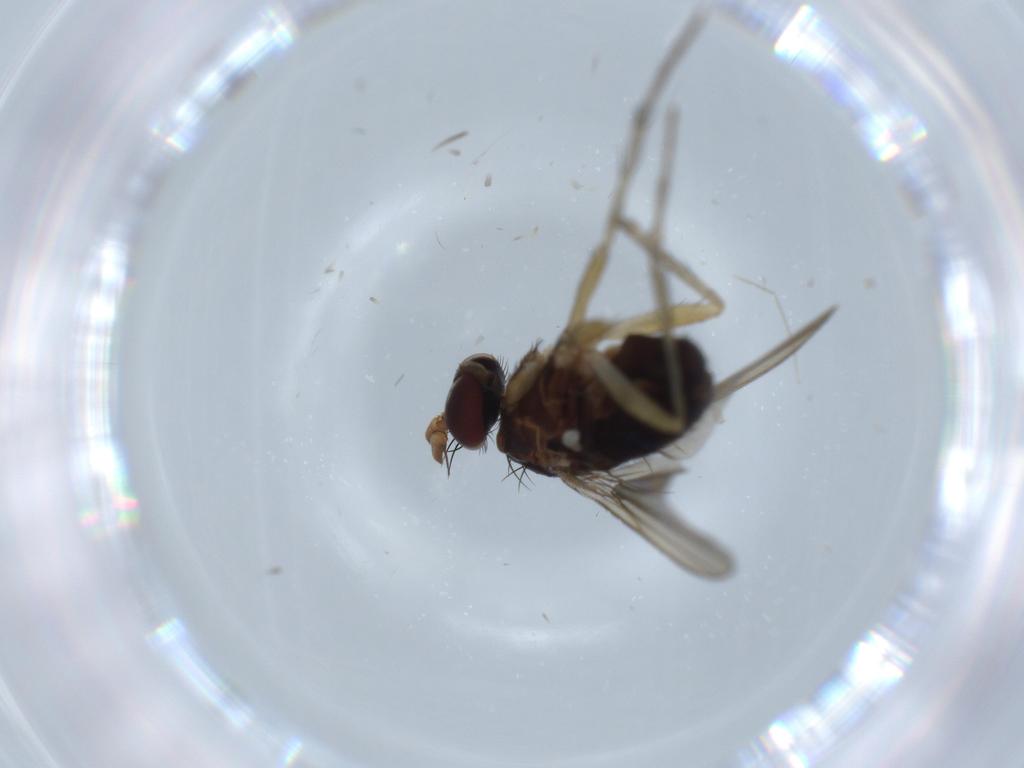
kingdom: Animalia
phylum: Arthropoda
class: Insecta
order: Diptera
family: Dolichopodidae
